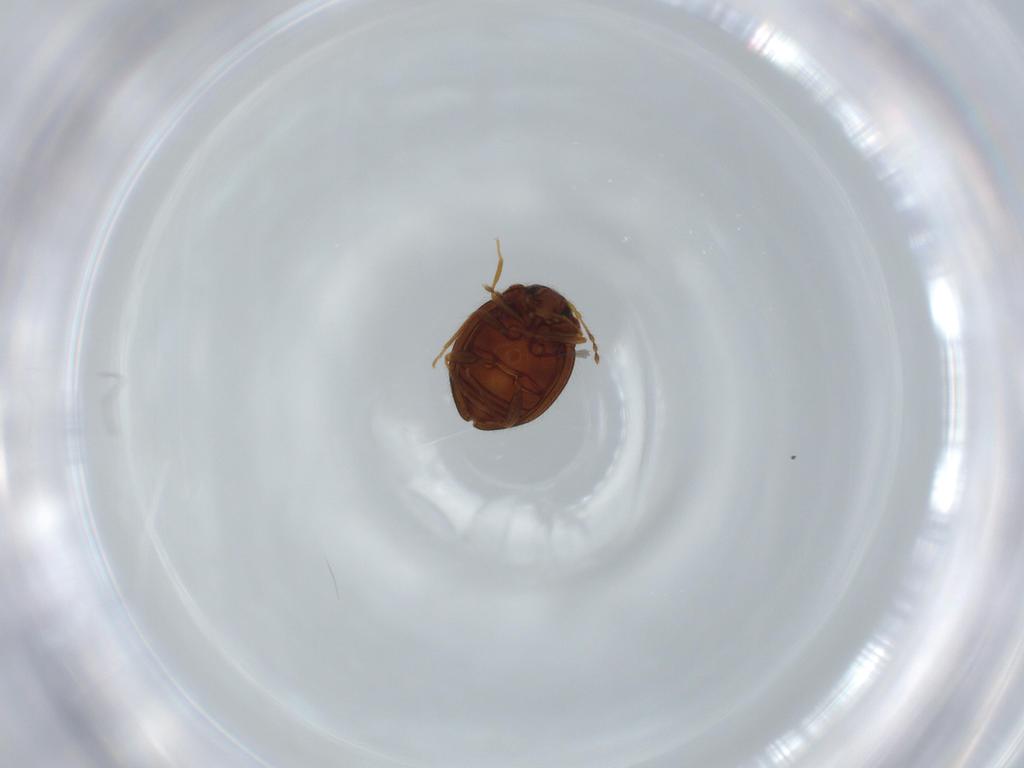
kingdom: Animalia
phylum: Arthropoda
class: Insecta
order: Coleoptera
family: Anamorphidae
